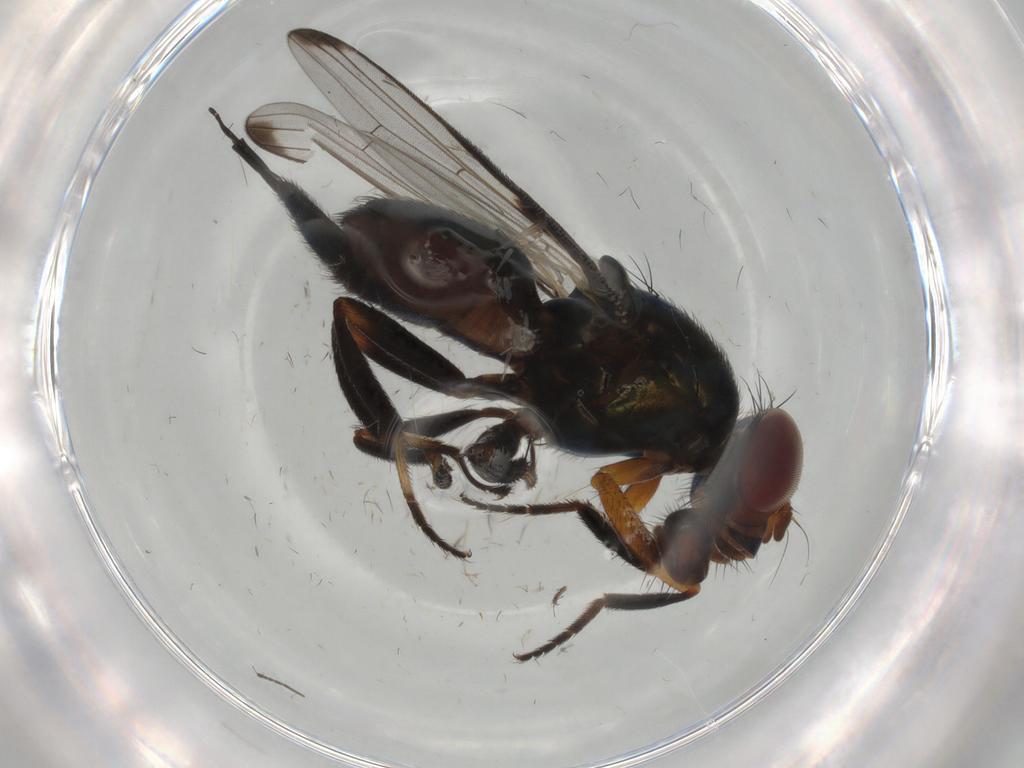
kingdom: Animalia
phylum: Arthropoda
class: Insecta
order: Diptera
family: Ulidiidae
